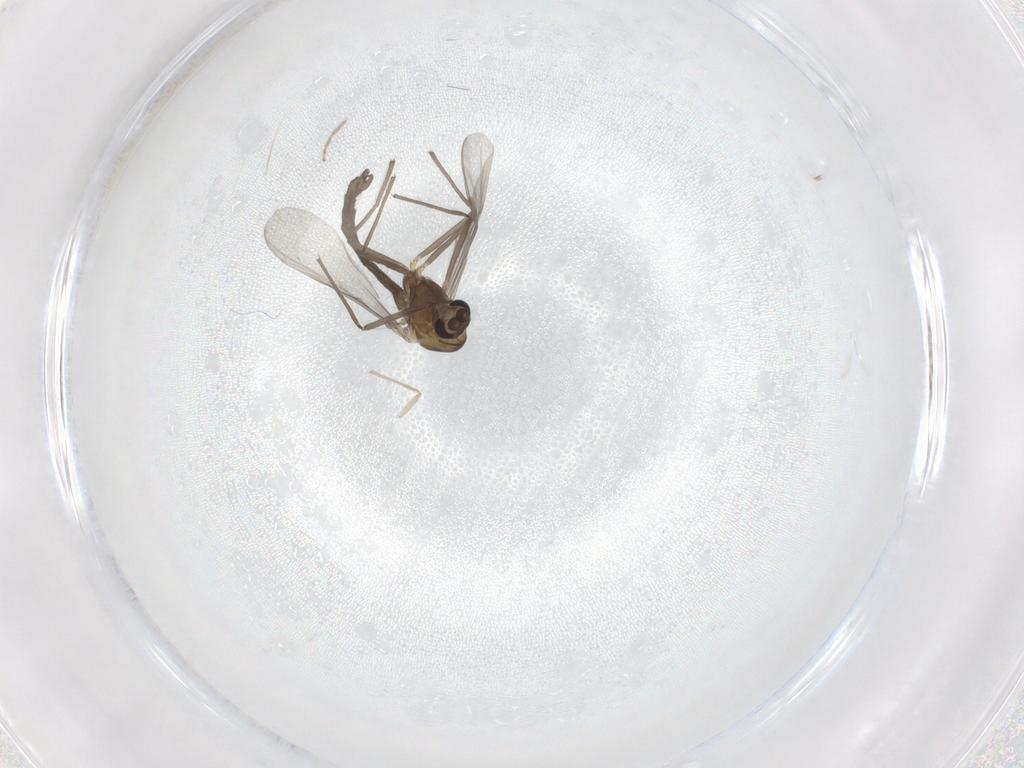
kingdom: Animalia
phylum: Arthropoda
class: Insecta
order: Diptera
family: Chironomidae
